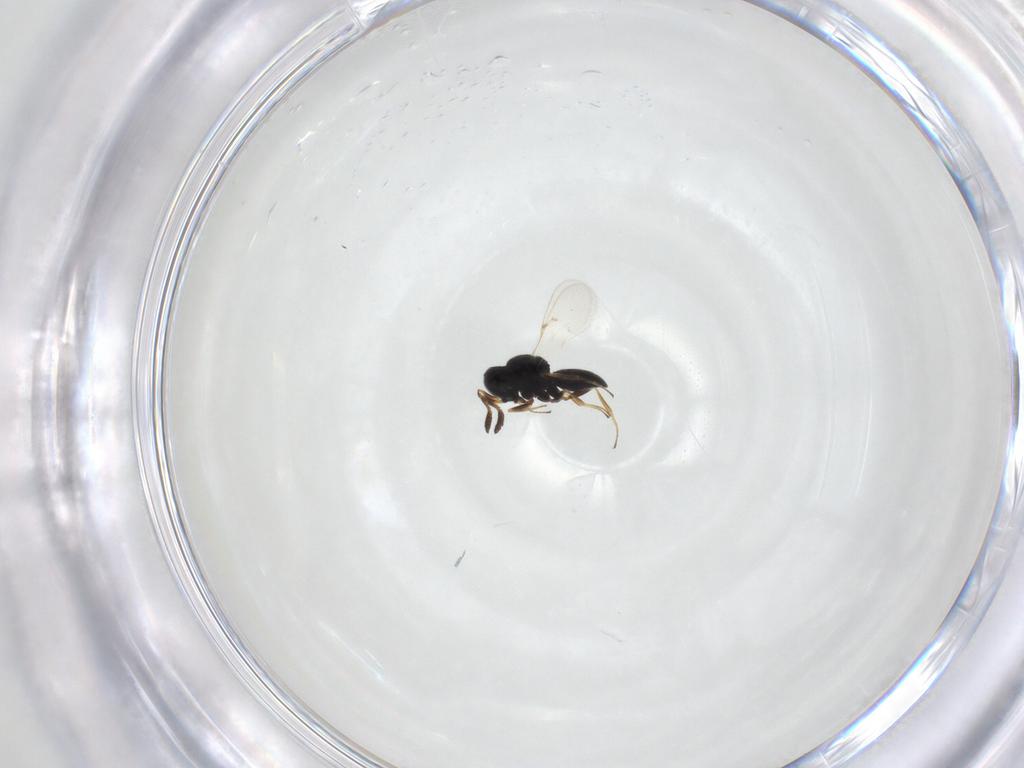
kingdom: Animalia
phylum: Arthropoda
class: Insecta
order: Hymenoptera
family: Scelionidae
